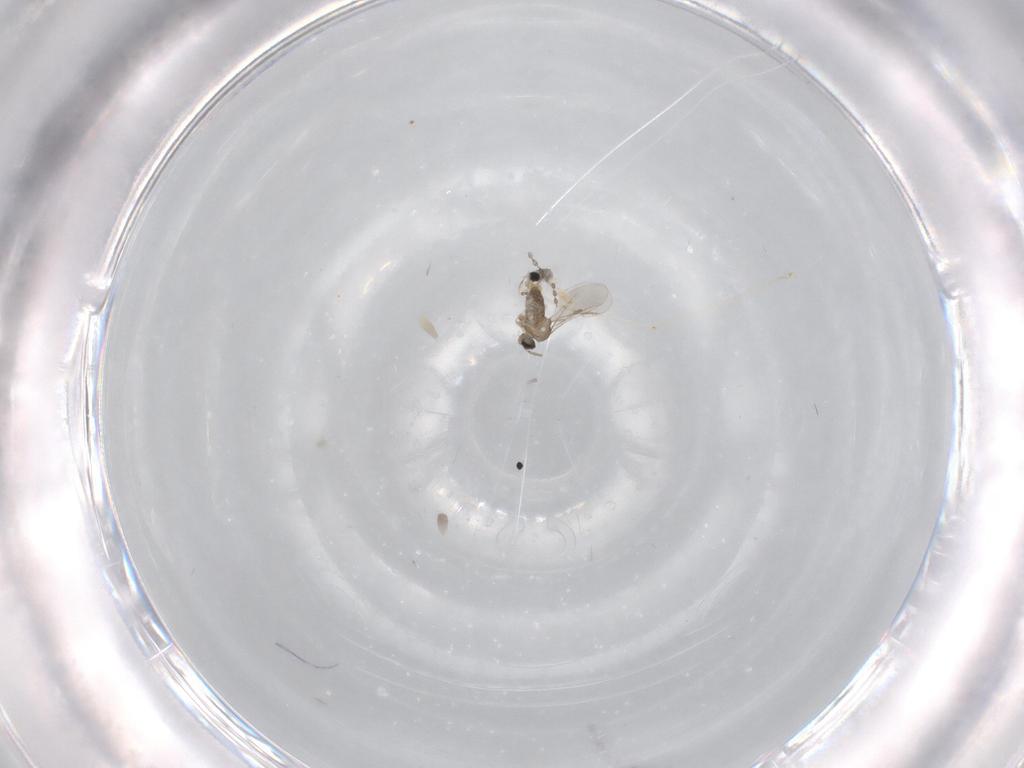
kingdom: Animalia
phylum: Arthropoda
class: Insecta
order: Diptera
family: Cecidomyiidae
